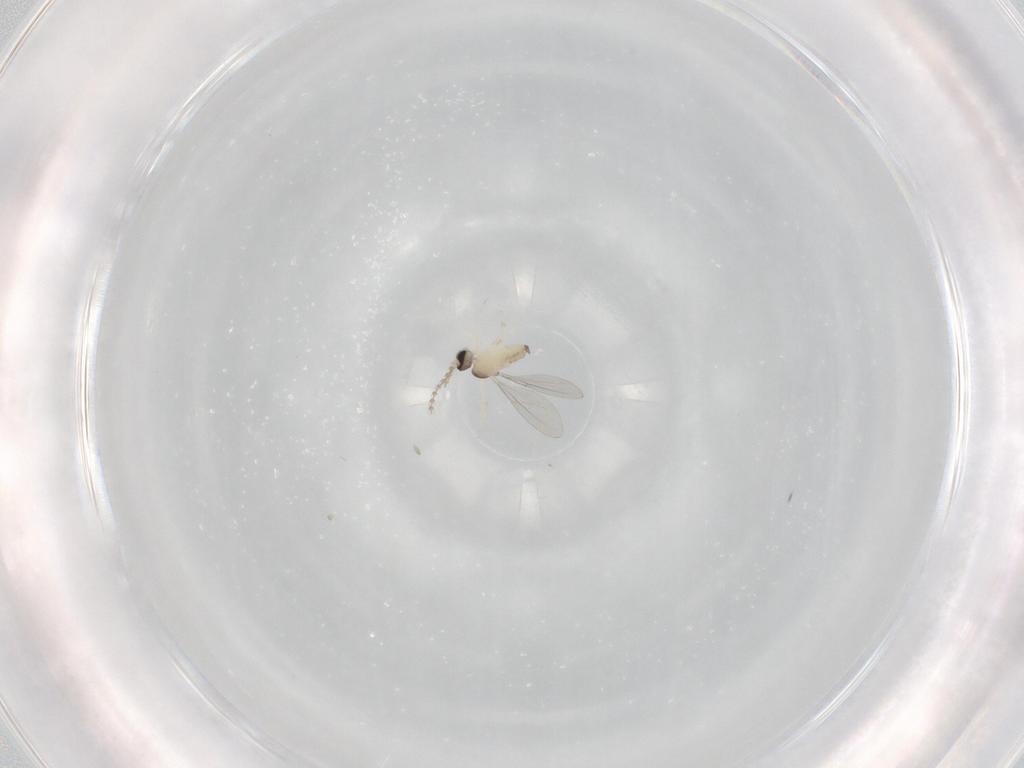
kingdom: Animalia
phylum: Arthropoda
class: Insecta
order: Diptera
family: Cecidomyiidae
